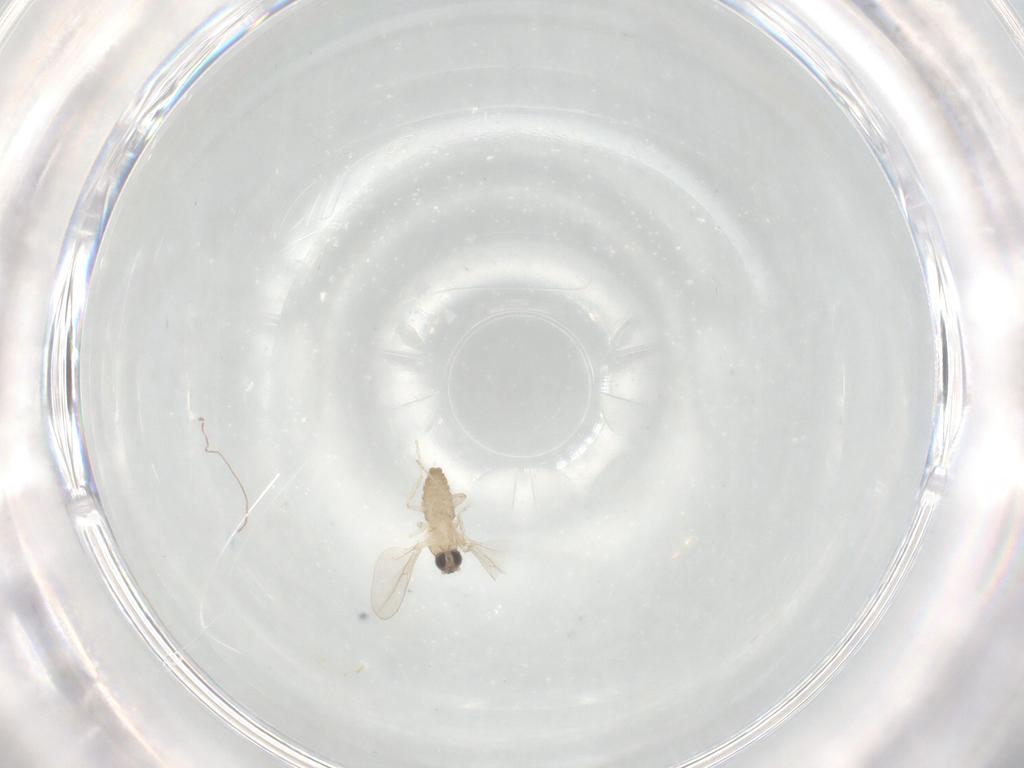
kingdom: Animalia
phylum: Arthropoda
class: Insecta
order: Diptera
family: Cecidomyiidae
